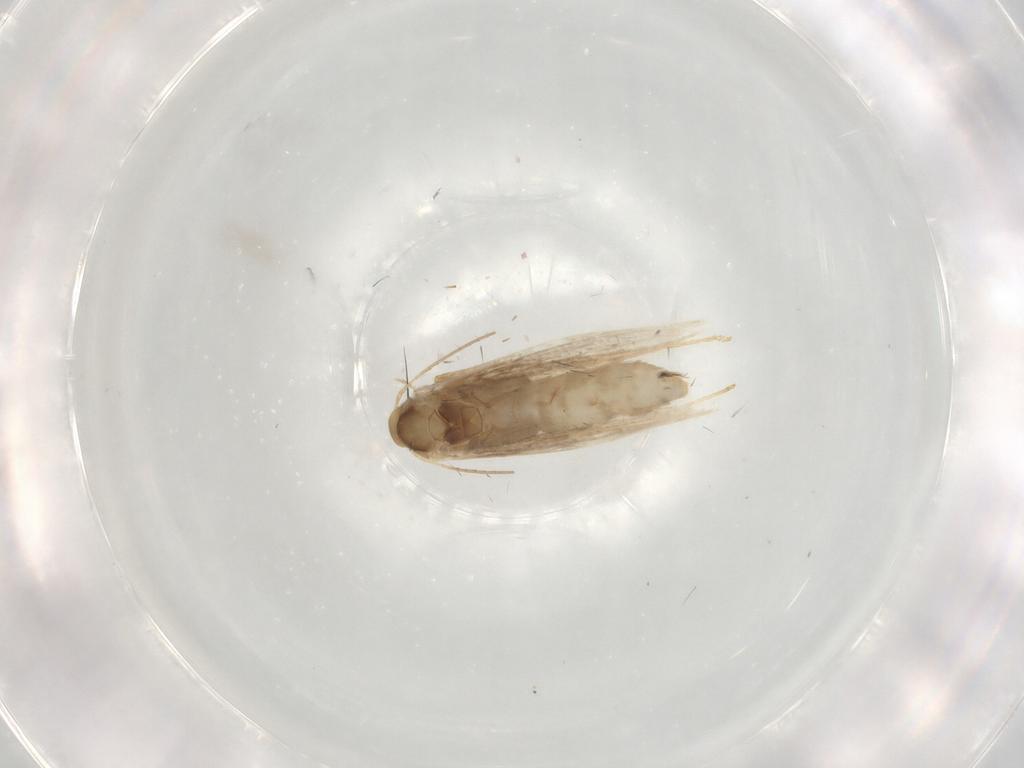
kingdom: Animalia
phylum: Arthropoda
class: Insecta
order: Lepidoptera
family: Gracillariidae
